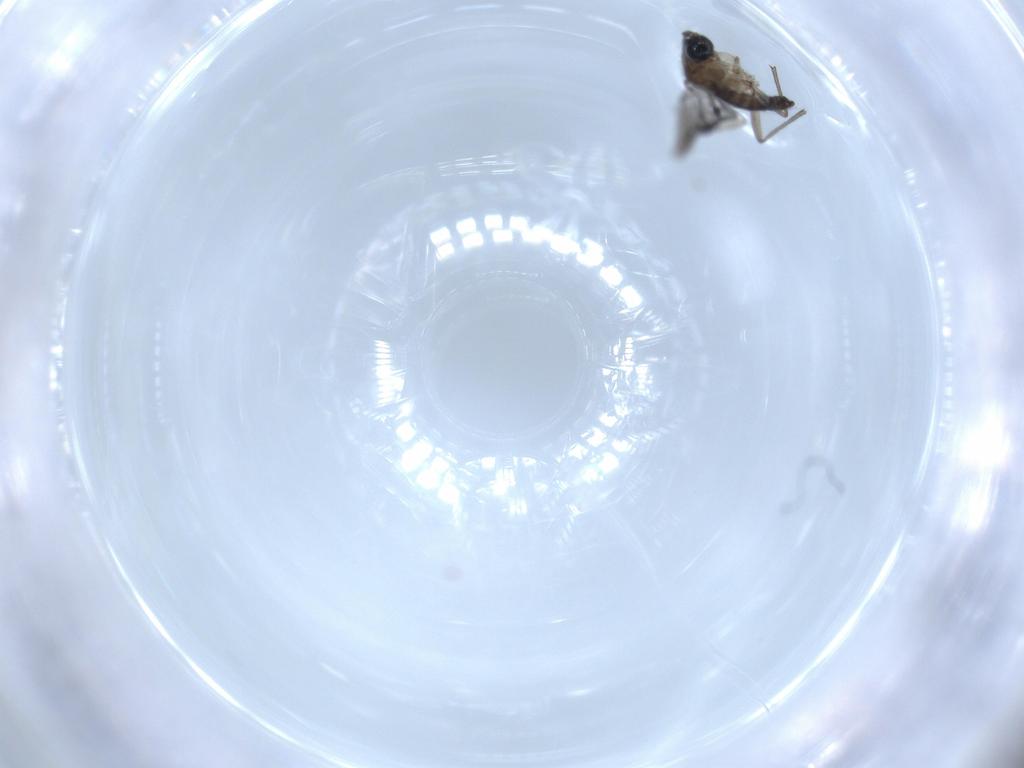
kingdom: Animalia
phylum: Arthropoda
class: Insecta
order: Diptera
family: Sciaridae
